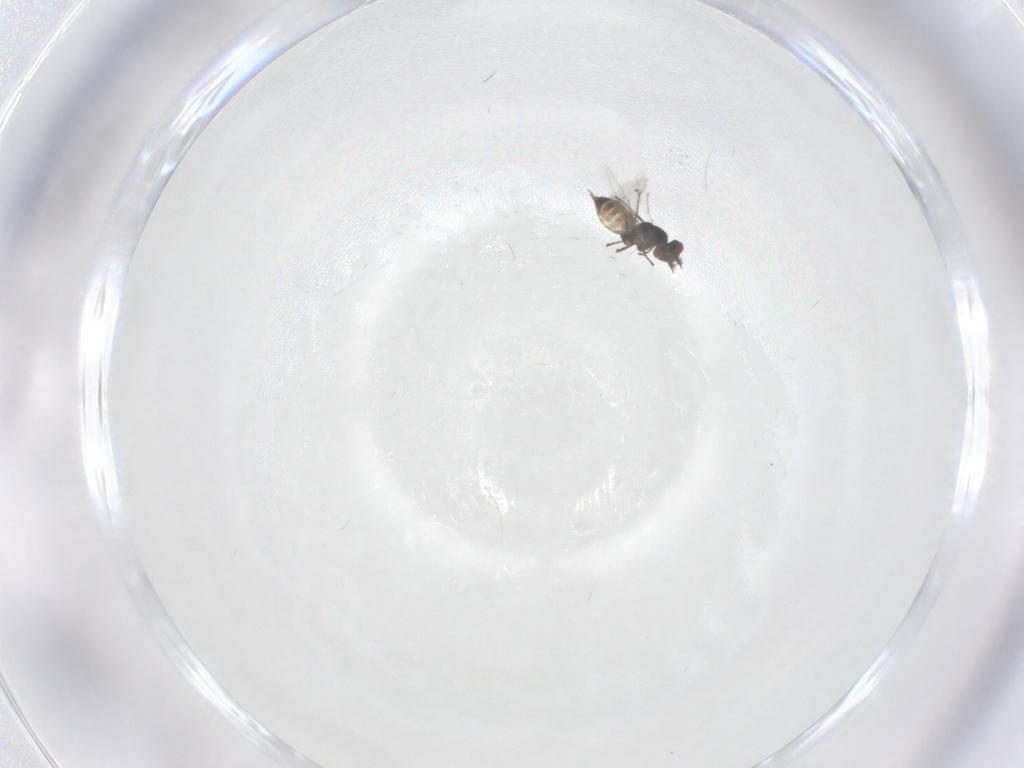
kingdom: Animalia
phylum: Arthropoda
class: Insecta
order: Hymenoptera
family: Eulophidae
